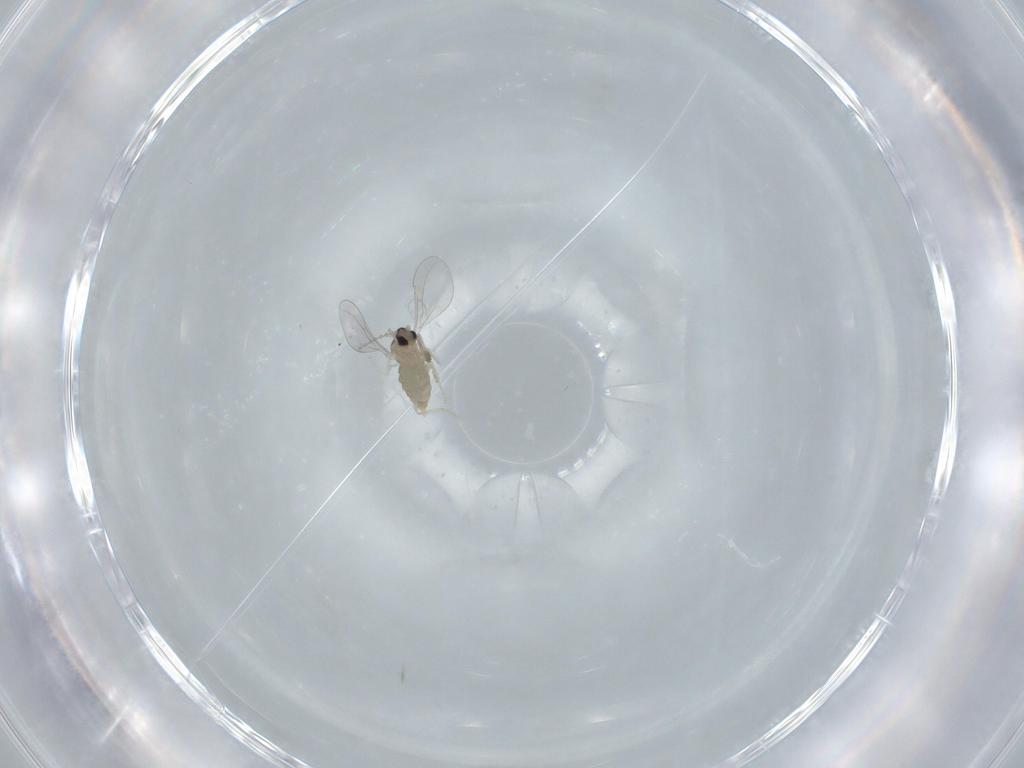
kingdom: Animalia
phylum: Arthropoda
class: Insecta
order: Diptera
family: Cecidomyiidae
